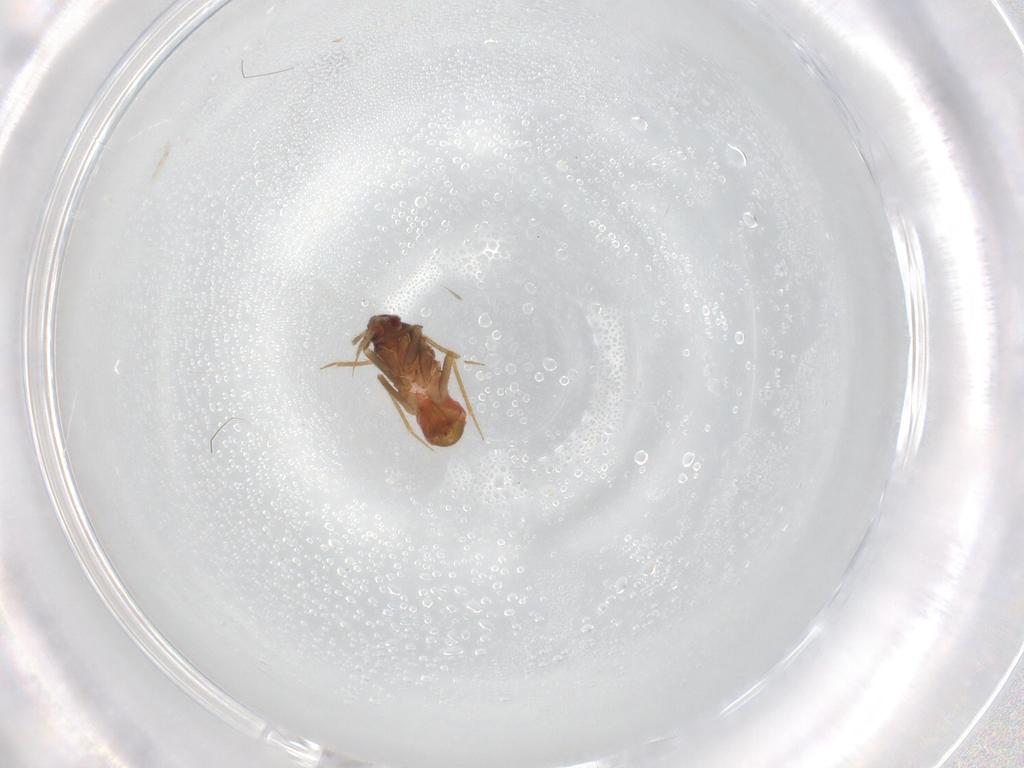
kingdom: Animalia
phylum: Arthropoda
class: Insecta
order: Hemiptera
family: Ceratocombidae
